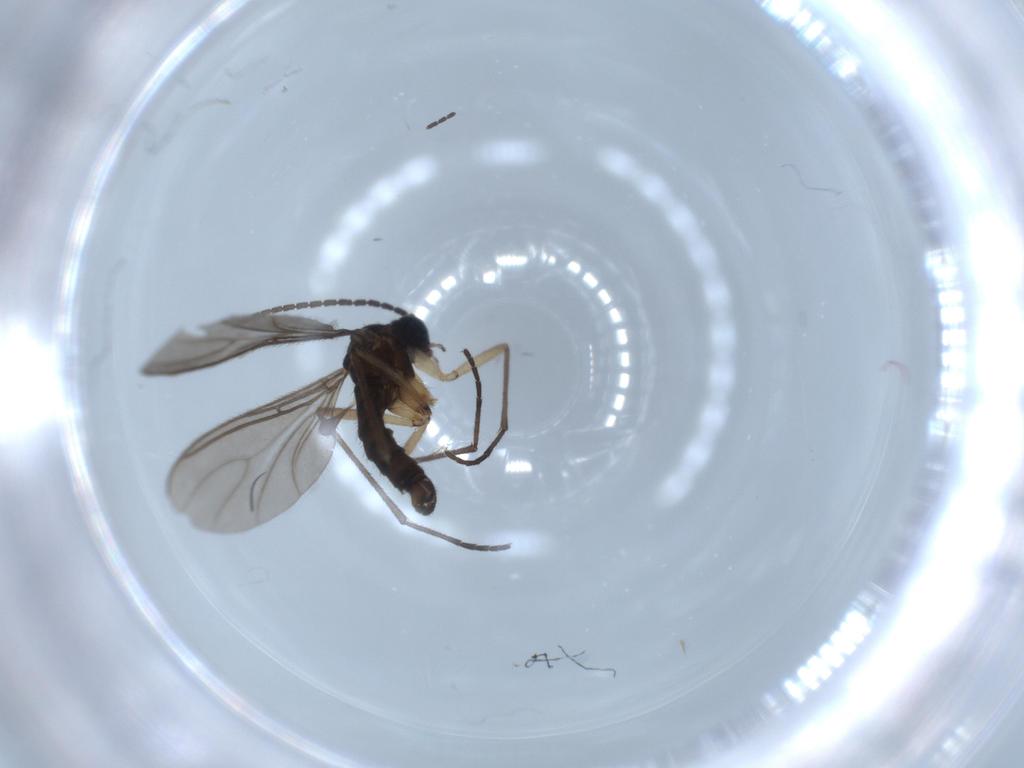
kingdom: Animalia
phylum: Arthropoda
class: Insecta
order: Diptera
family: Sciaridae
